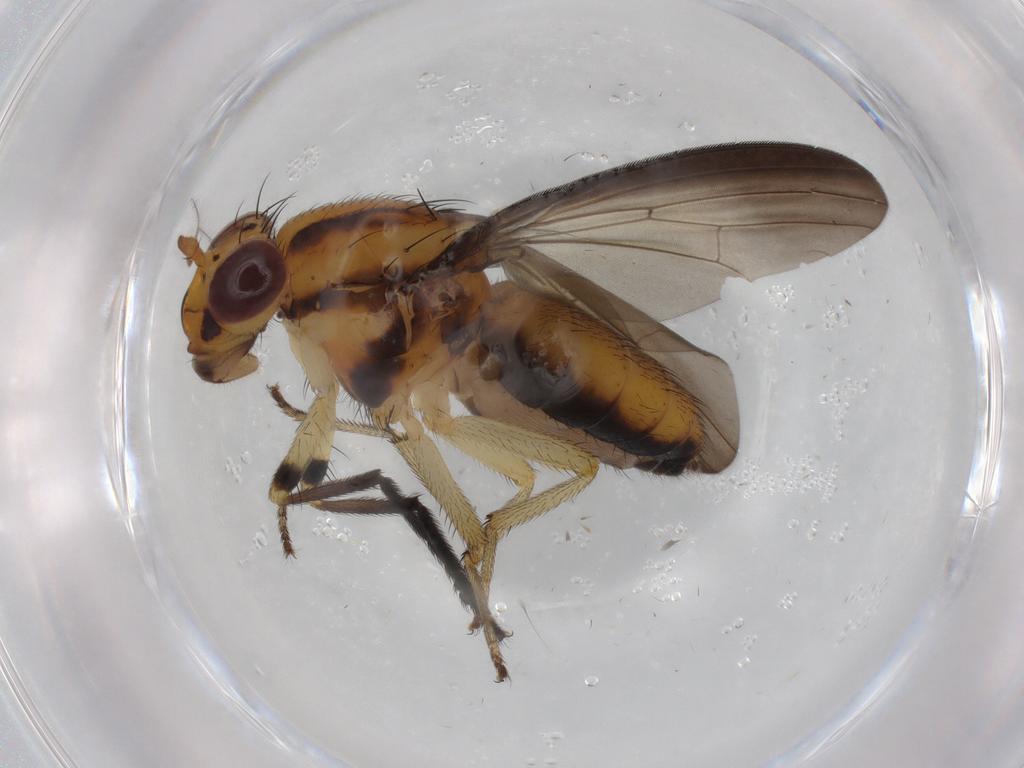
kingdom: Animalia
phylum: Arthropoda
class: Insecta
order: Diptera
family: Lauxaniidae
